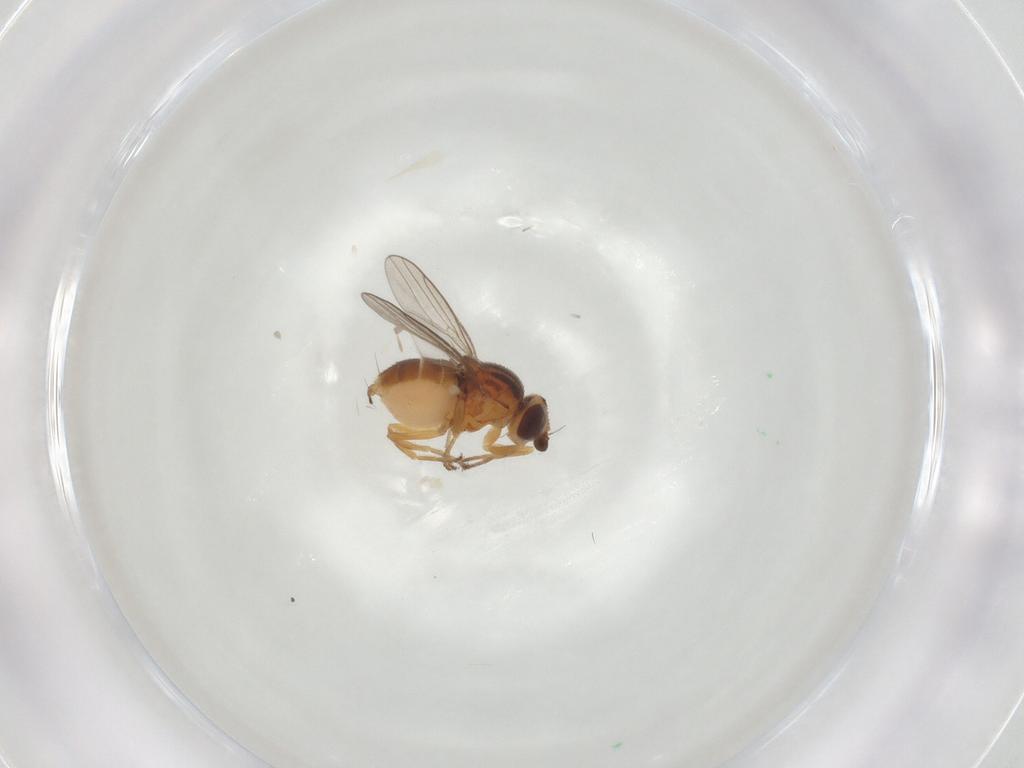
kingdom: Animalia
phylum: Arthropoda
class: Insecta
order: Diptera
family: Chloropidae
